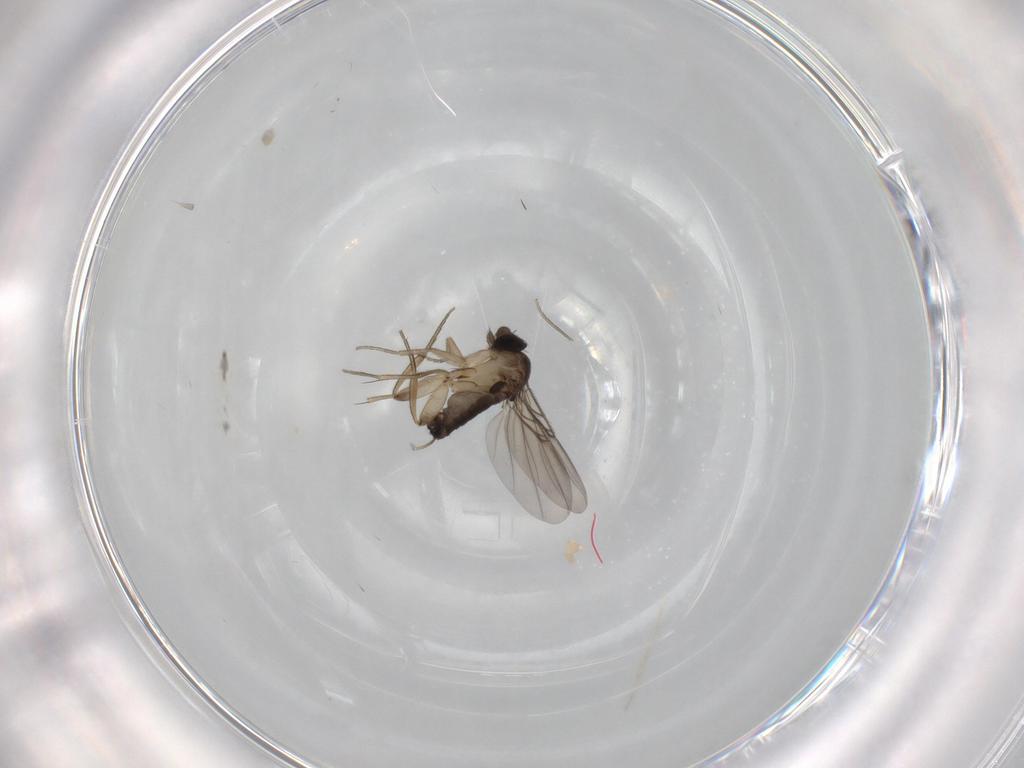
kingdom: Animalia
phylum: Arthropoda
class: Insecta
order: Diptera
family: Phoridae
